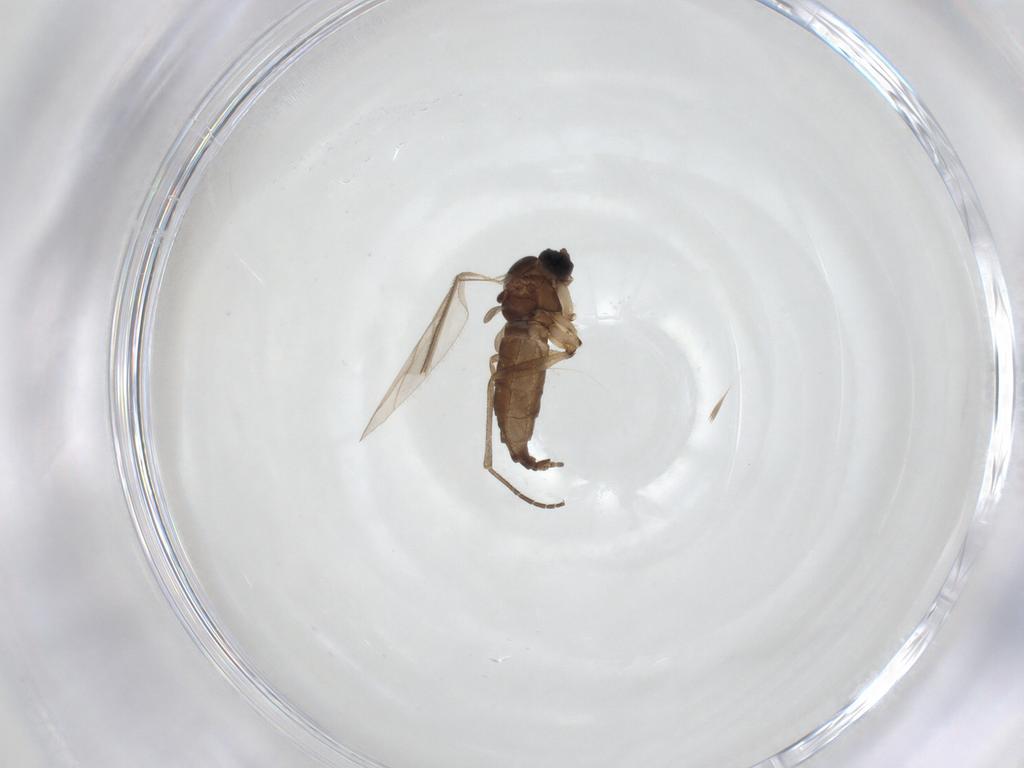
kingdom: Animalia
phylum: Arthropoda
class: Insecta
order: Diptera
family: Sciaridae
